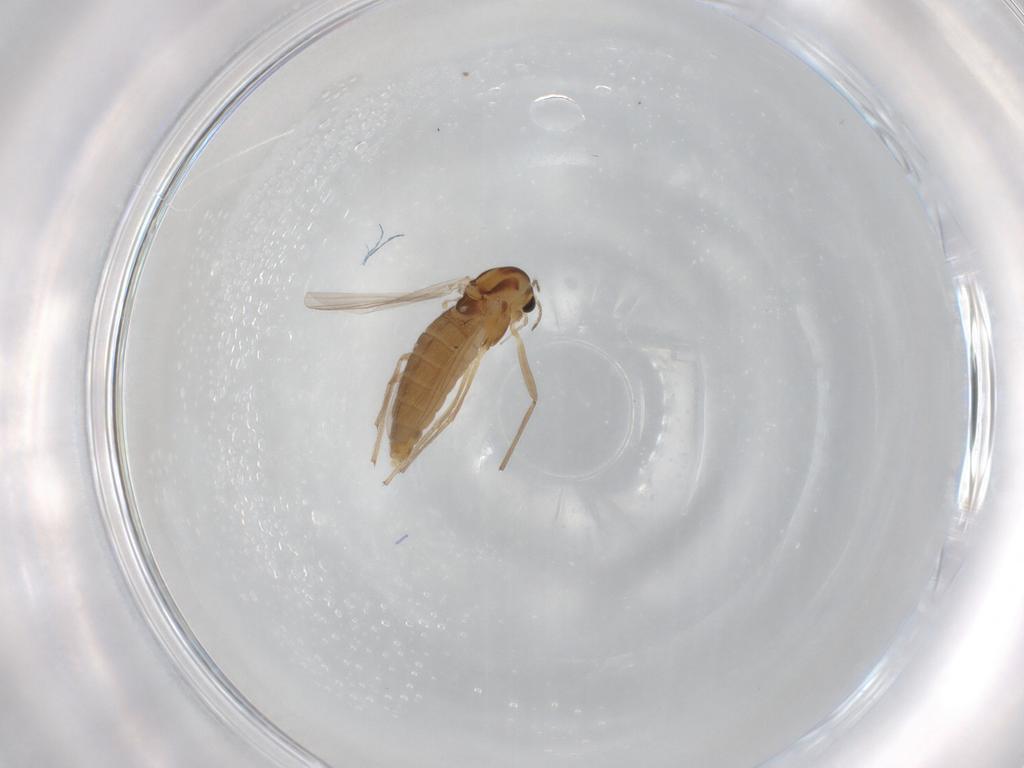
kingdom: Animalia
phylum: Arthropoda
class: Insecta
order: Diptera
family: Chironomidae
